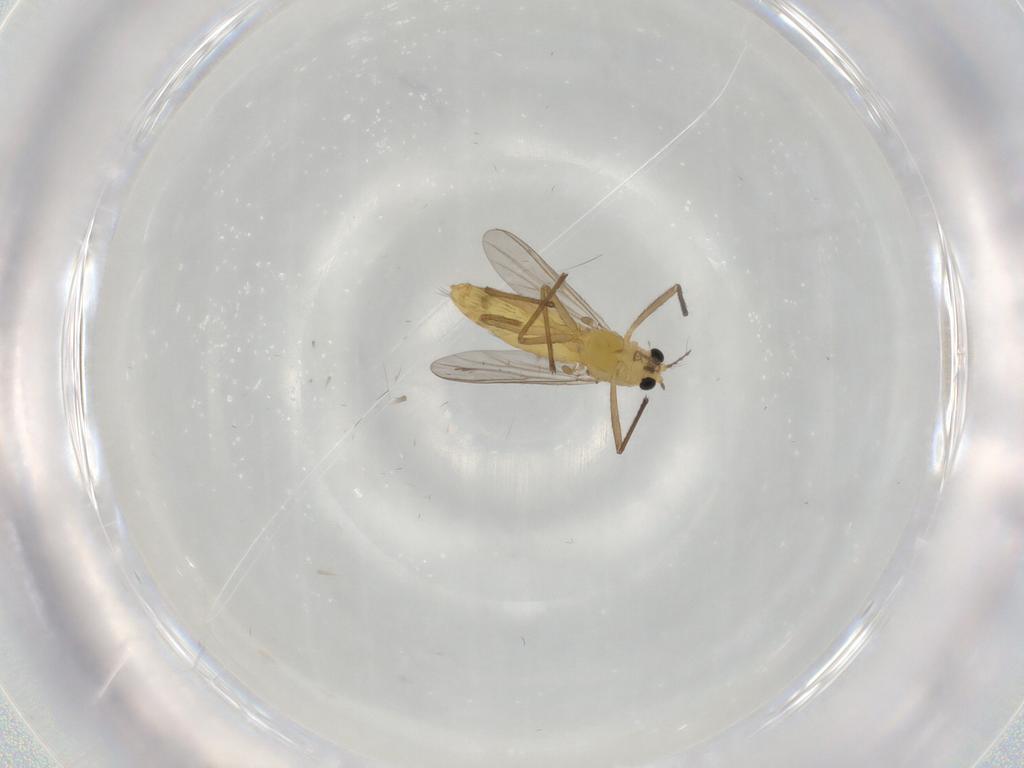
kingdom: Animalia
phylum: Arthropoda
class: Insecta
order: Diptera
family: Chironomidae
